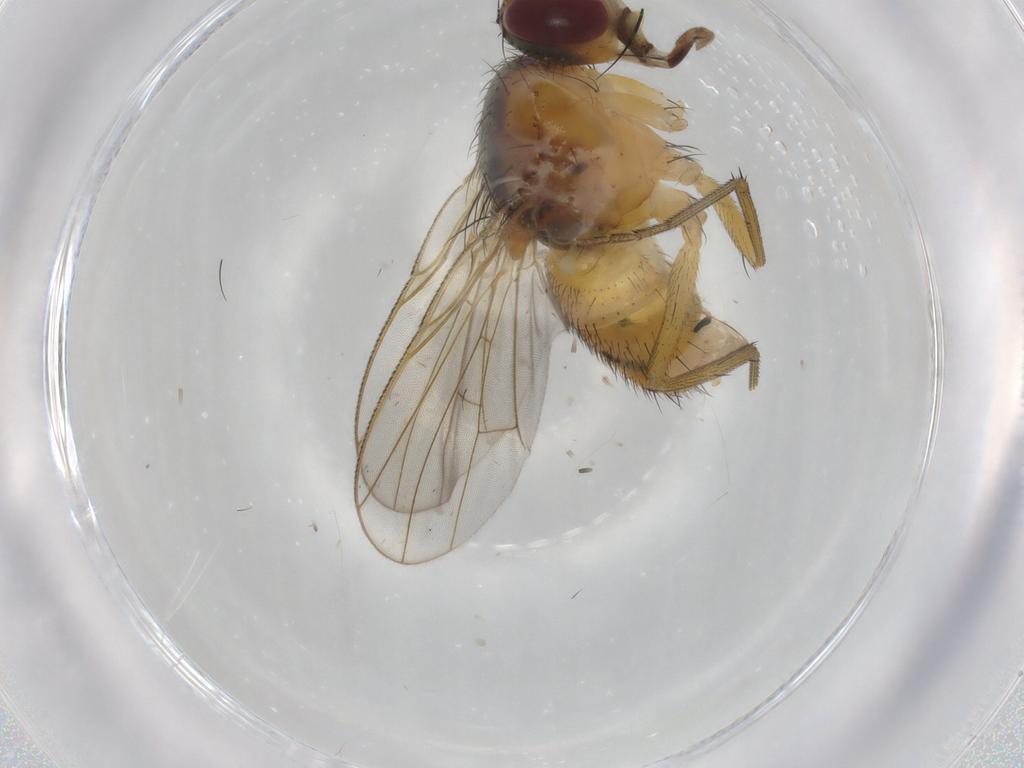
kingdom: Animalia
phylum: Arthropoda
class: Insecta
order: Diptera
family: Muscidae
